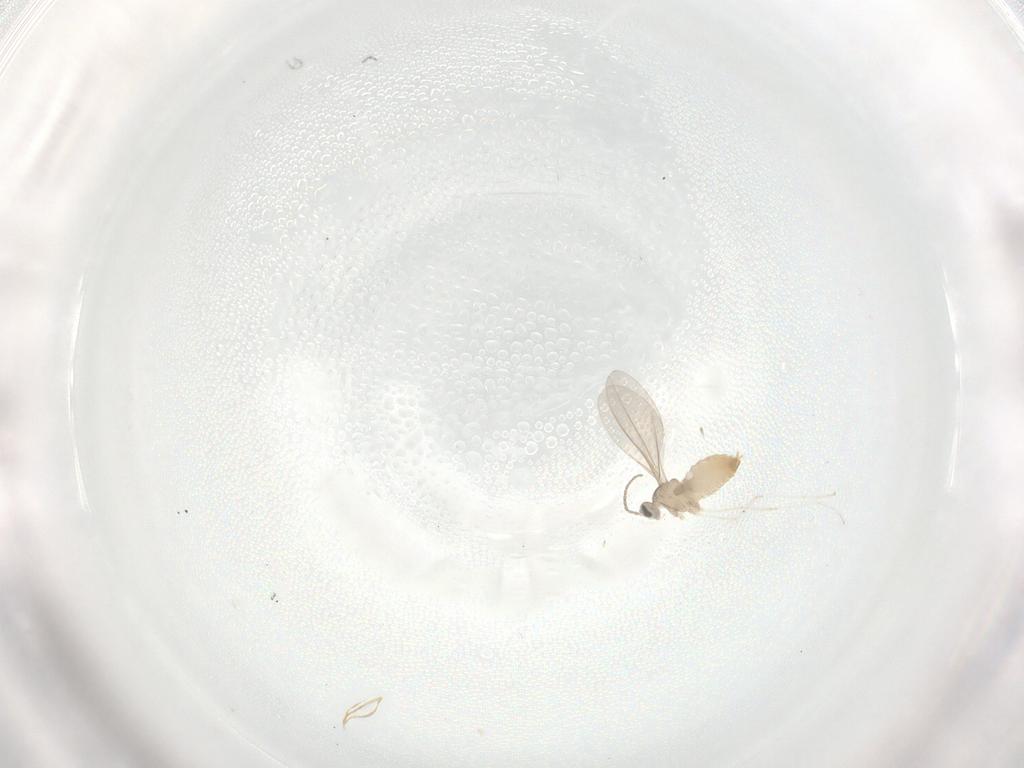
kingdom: Animalia
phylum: Arthropoda
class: Insecta
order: Diptera
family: Cecidomyiidae
